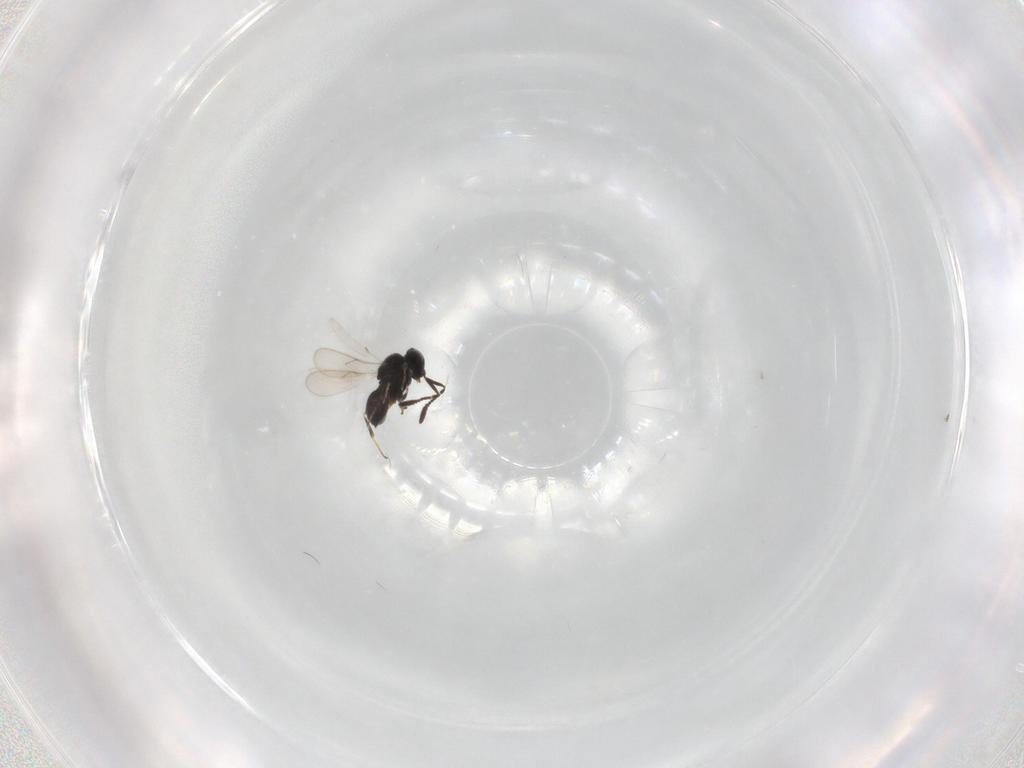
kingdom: Animalia
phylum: Arthropoda
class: Insecta
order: Hymenoptera
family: Scelionidae
